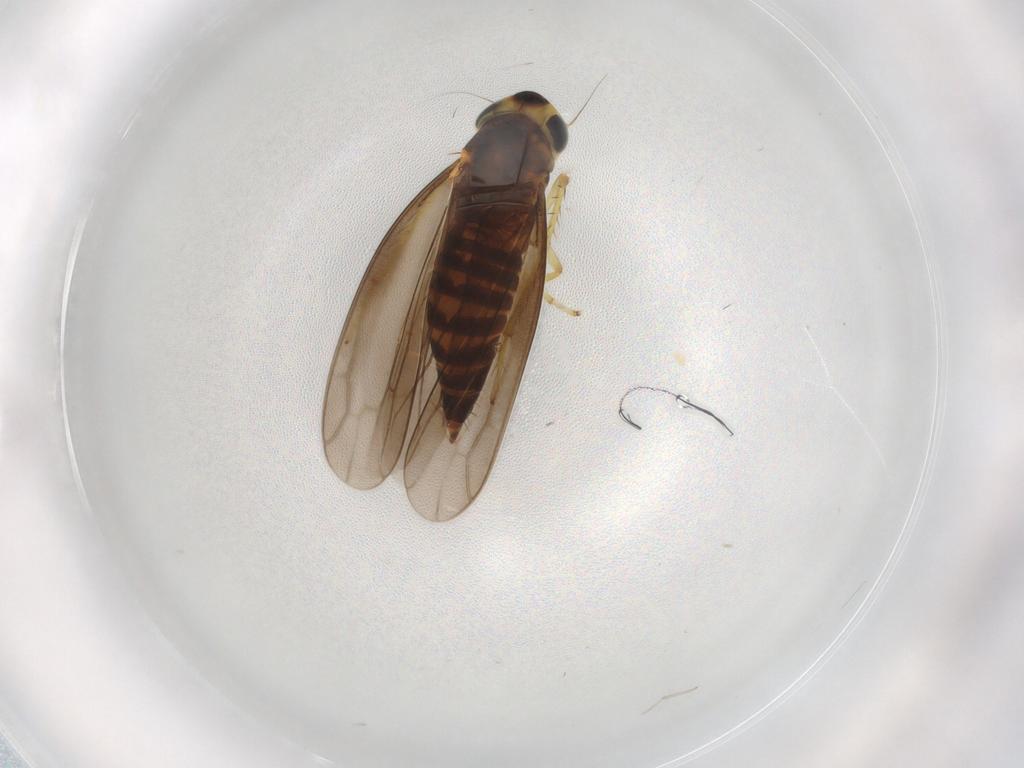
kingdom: Animalia
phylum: Arthropoda
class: Insecta
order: Hemiptera
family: Cicadellidae
